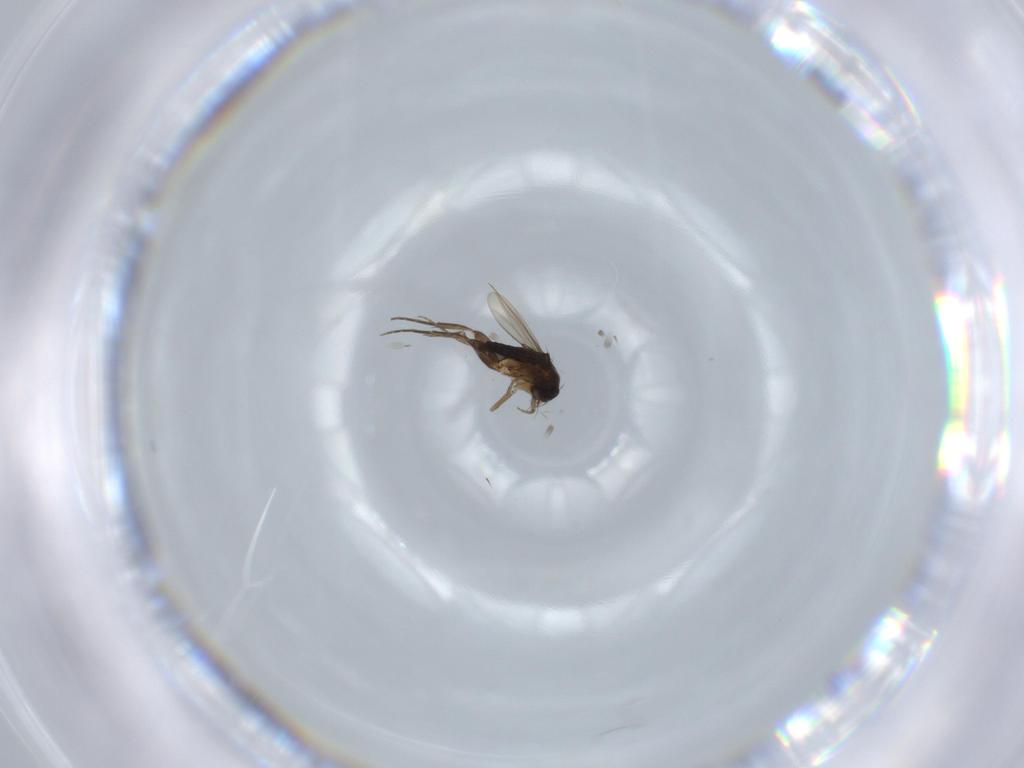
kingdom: Animalia
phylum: Arthropoda
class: Insecta
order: Diptera
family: Phoridae
